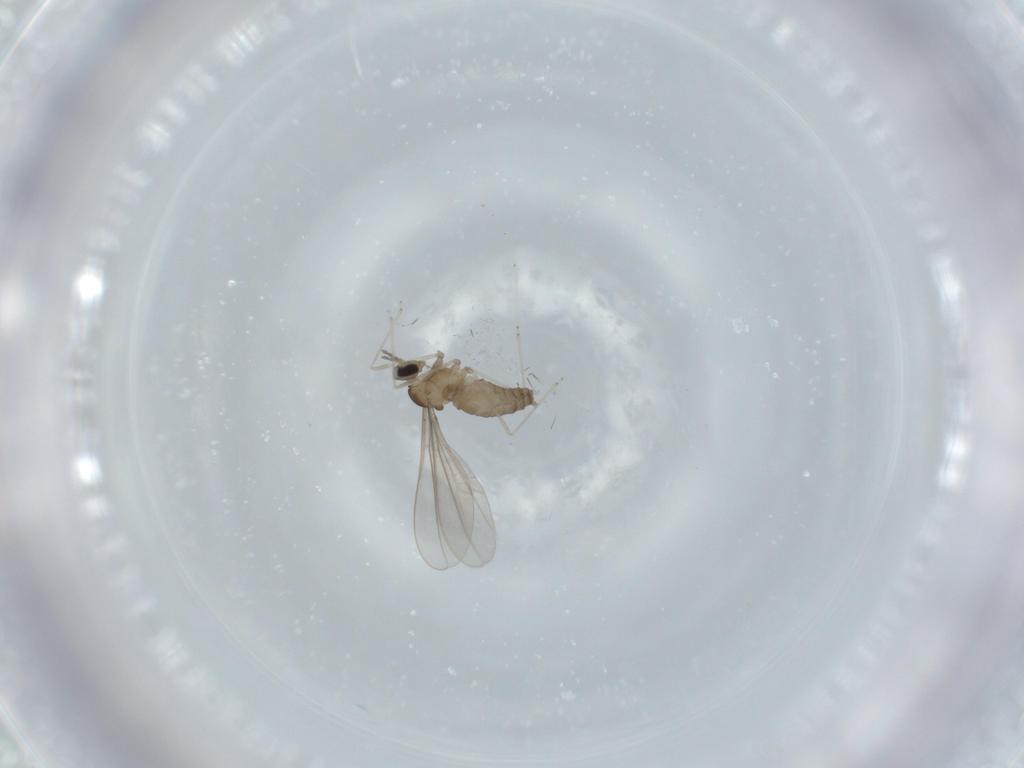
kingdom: Animalia
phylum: Arthropoda
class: Insecta
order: Diptera
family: Cecidomyiidae
